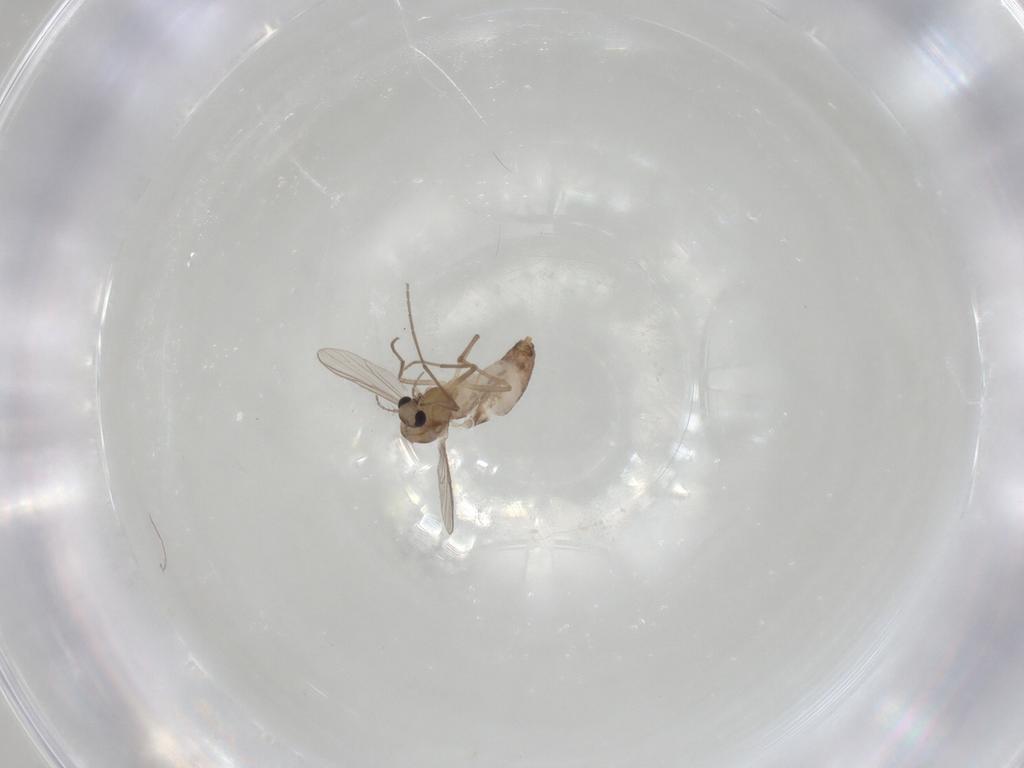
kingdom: Animalia
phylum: Arthropoda
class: Insecta
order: Diptera
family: Chironomidae
